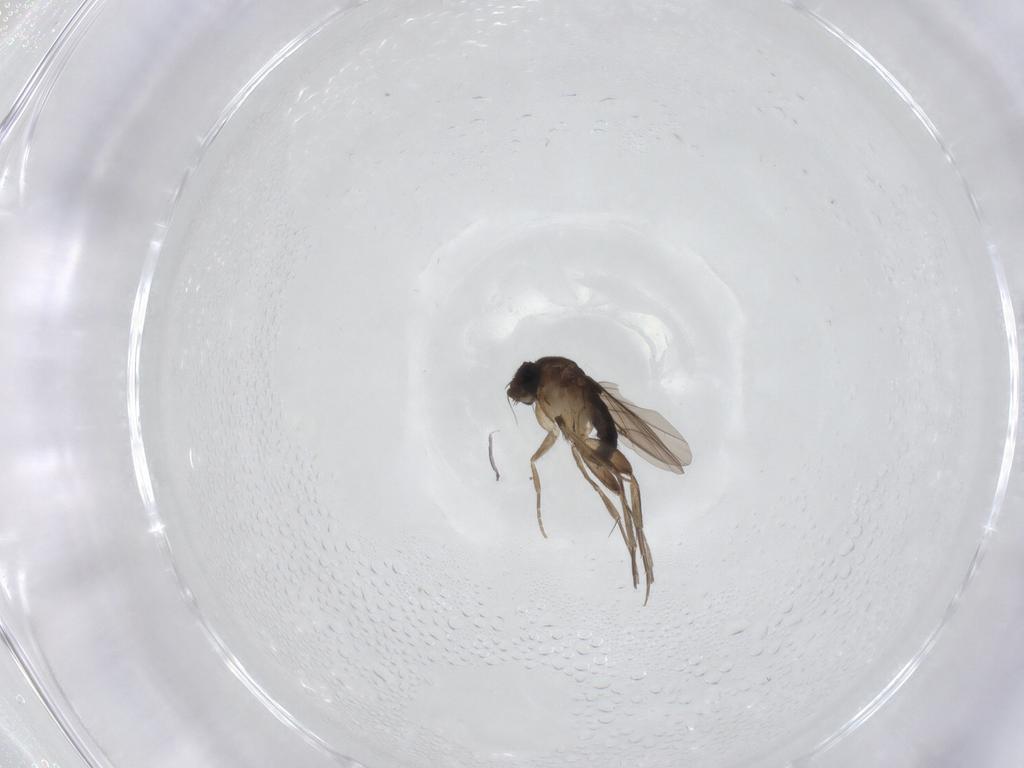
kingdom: Animalia
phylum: Arthropoda
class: Insecta
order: Diptera
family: Phoridae
